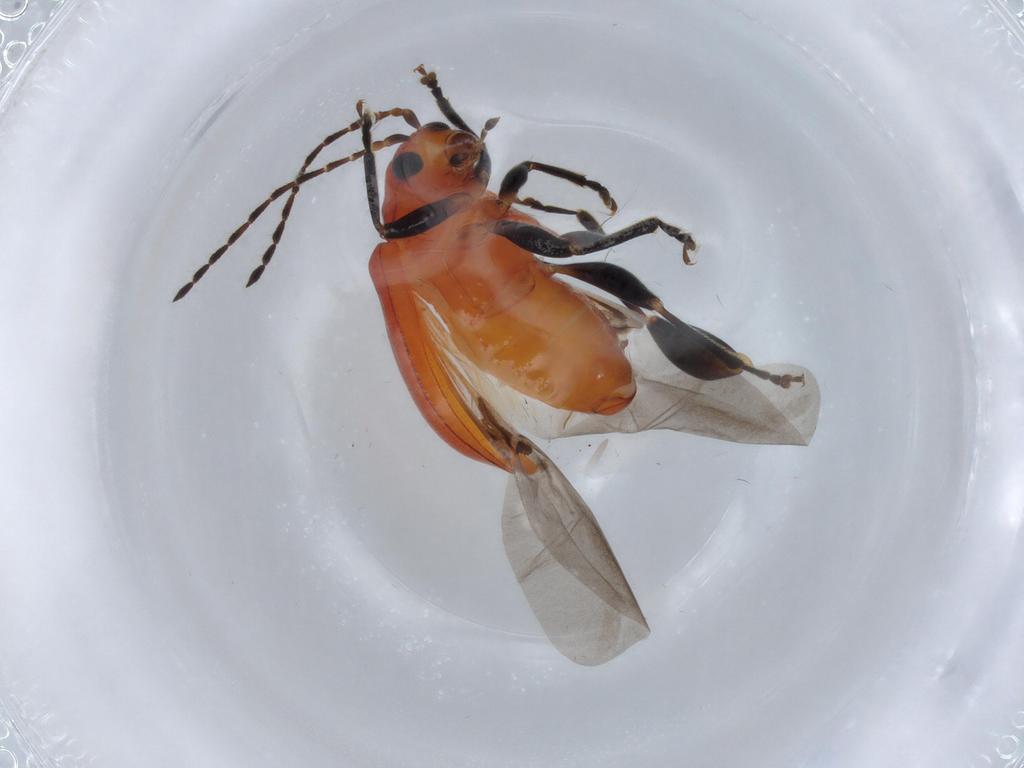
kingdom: Animalia
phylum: Arthropoda
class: Insecta
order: Coleoptera
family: Chrysomelidae
